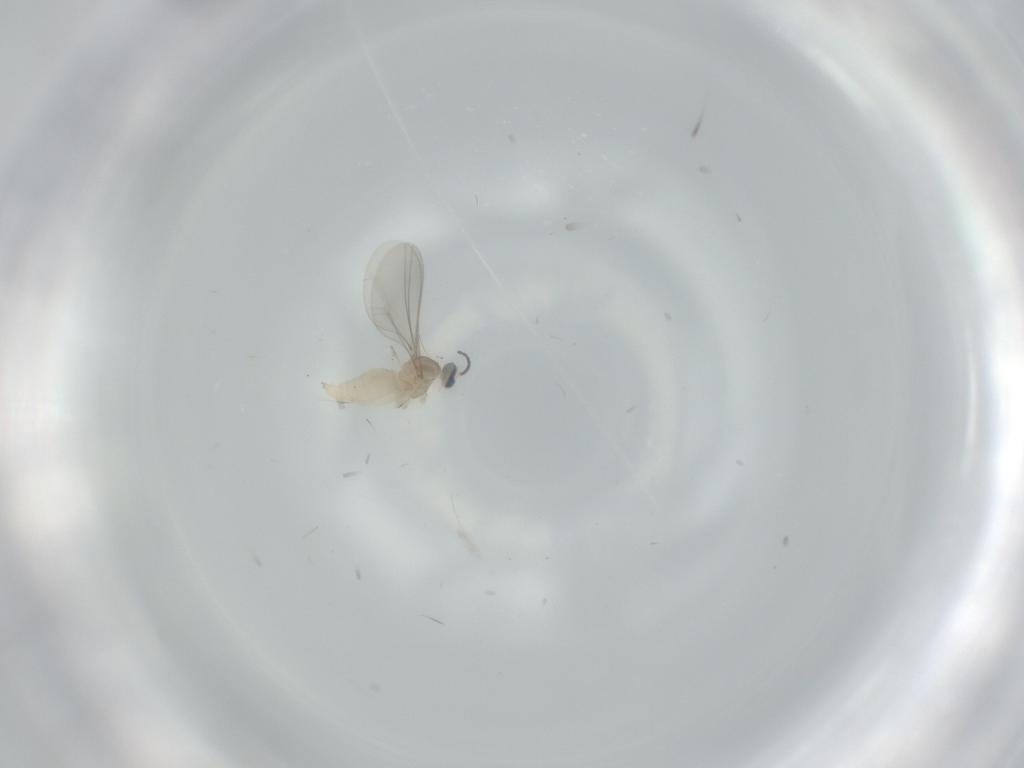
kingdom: Animalia
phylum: Arthropoda
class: Insecta
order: Diptera
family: Cecidomyiidae
